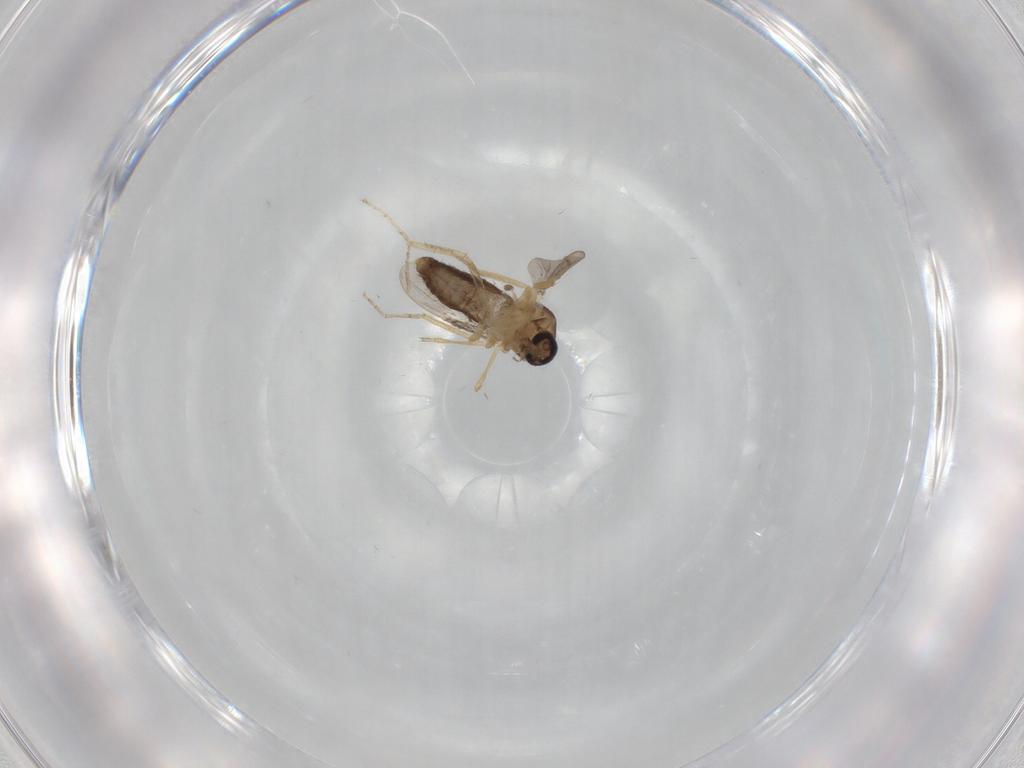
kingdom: Animalia
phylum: Arthropoda
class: Insecta
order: Diptera
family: Ceratopogonidae
